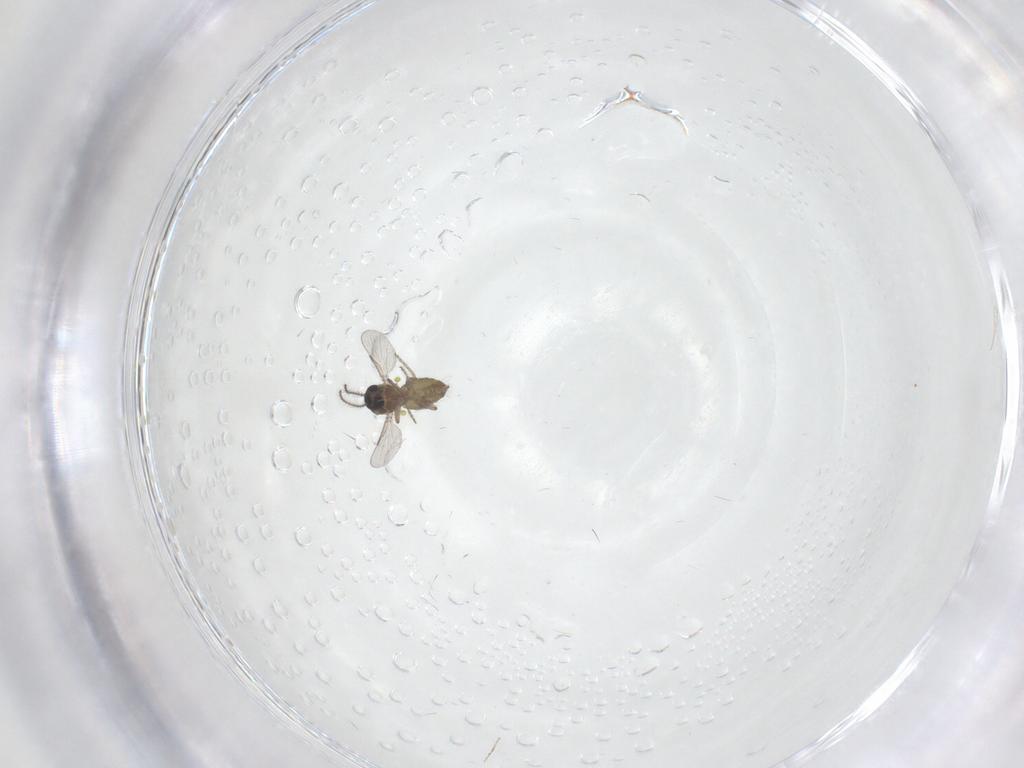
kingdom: Animalia
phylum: Arthropoda
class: Insecta
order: Diptera
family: Ceratopogonidae
